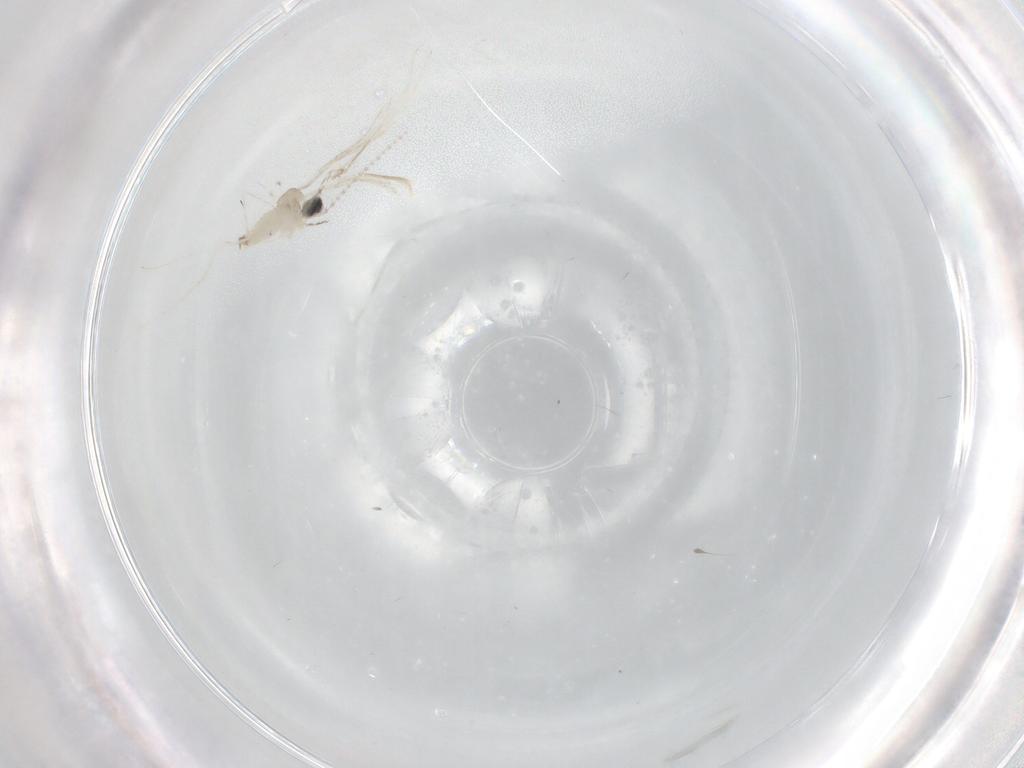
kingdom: Animalia
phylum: Arthropoda
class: Insecta
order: Diptera
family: Cecidomyiidae
